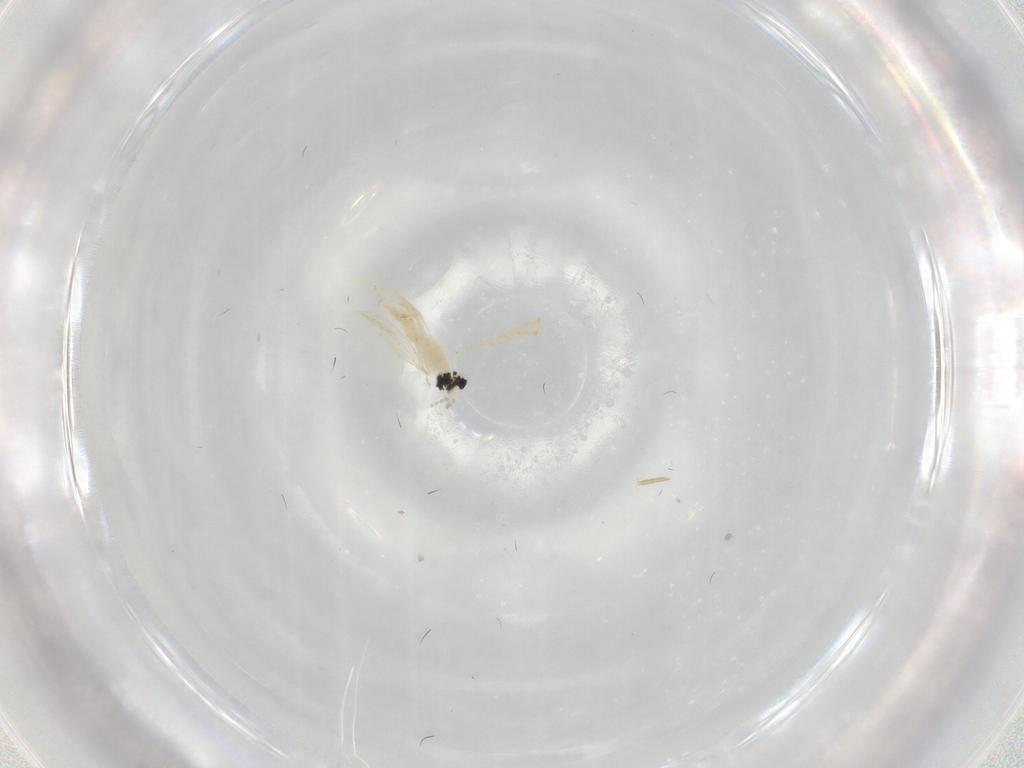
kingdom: Animalia
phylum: Arthropoda
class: Insecta
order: Diptera
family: Cecidomyiidae
